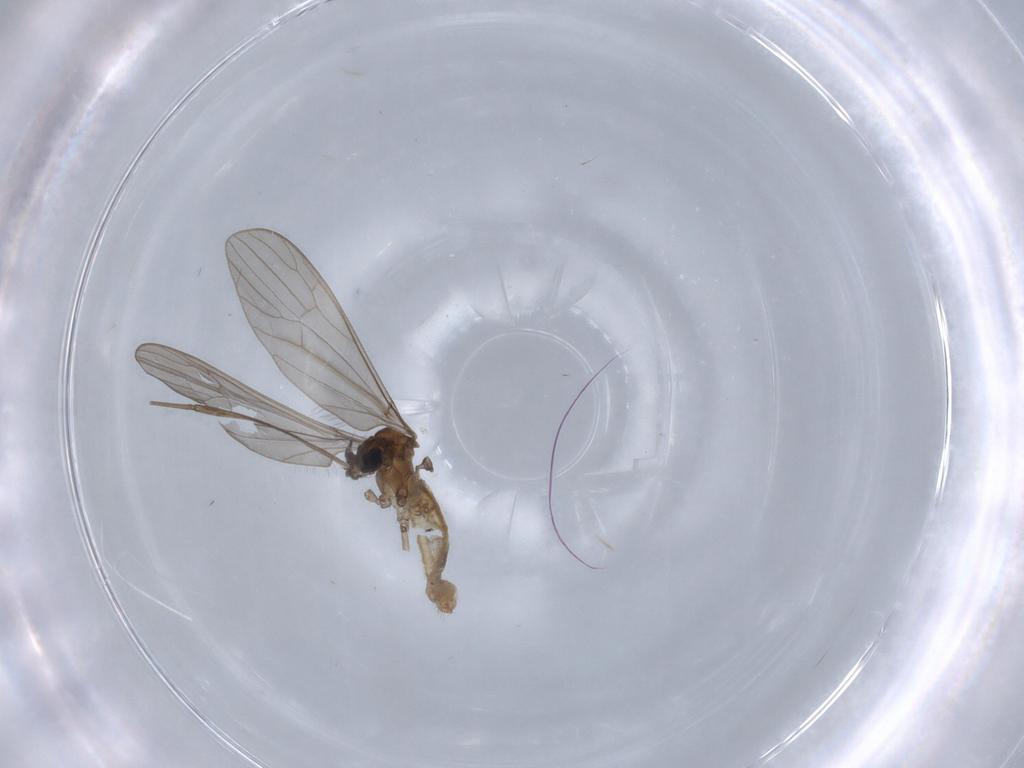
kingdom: Animalia
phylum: Arthropoda
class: Insecta
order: Diptera
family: Limoniidae
